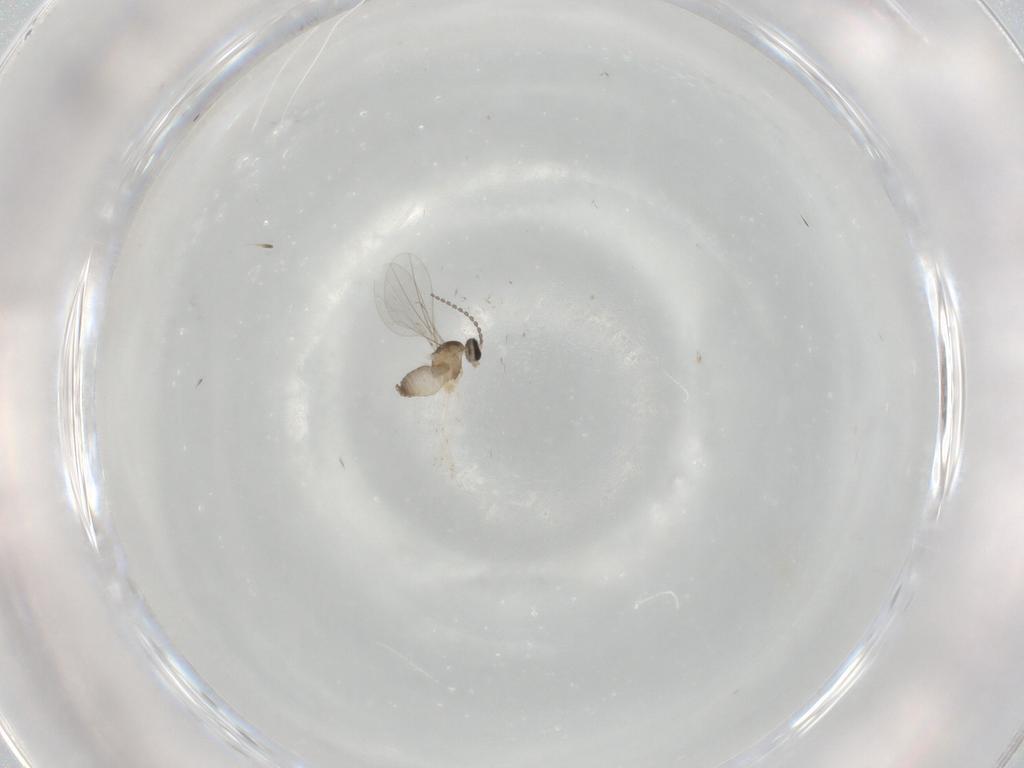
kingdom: Animalia
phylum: Arthropoda
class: Insecta
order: Diptera
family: Cecidomyiidae
